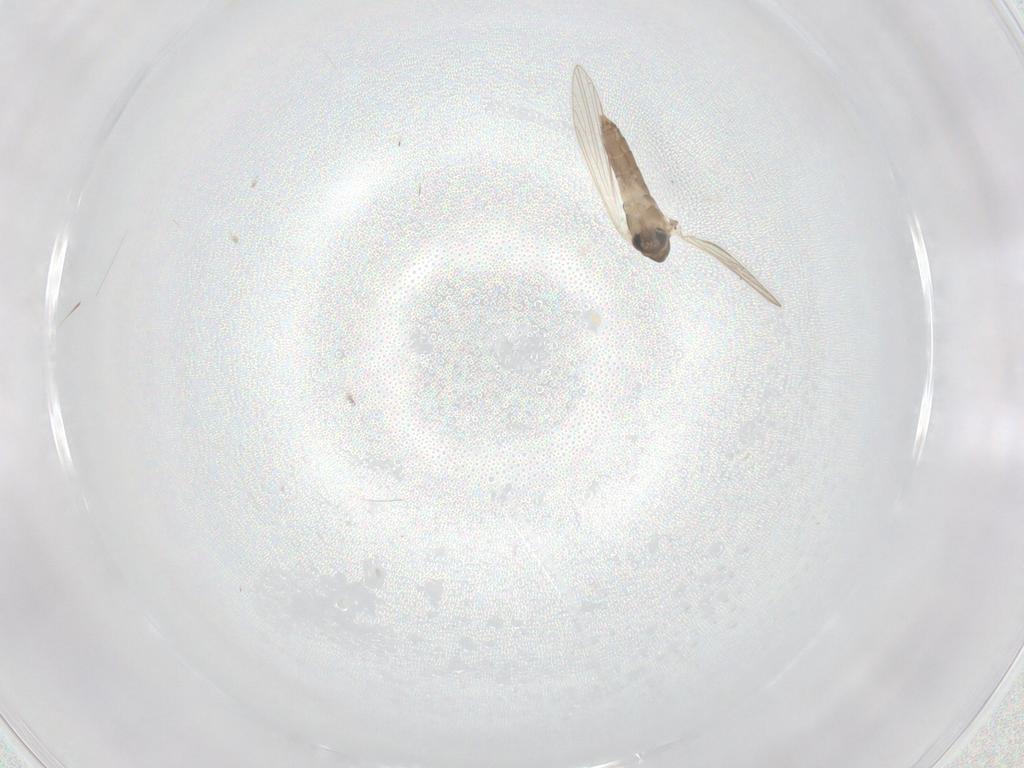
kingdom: Animalia
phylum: Arthropoda
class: Insecta
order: Diptera
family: Psychodidae
